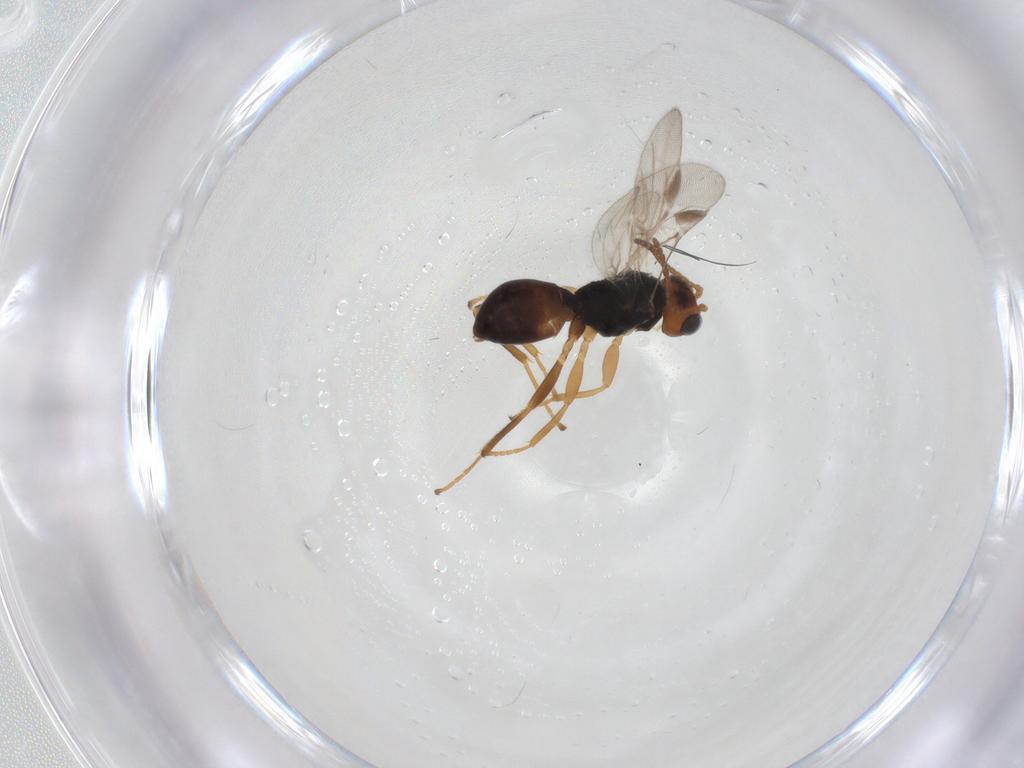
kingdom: Animalia
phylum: Arthropoda
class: Insecta
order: Hymenoptera
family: Braconidae
